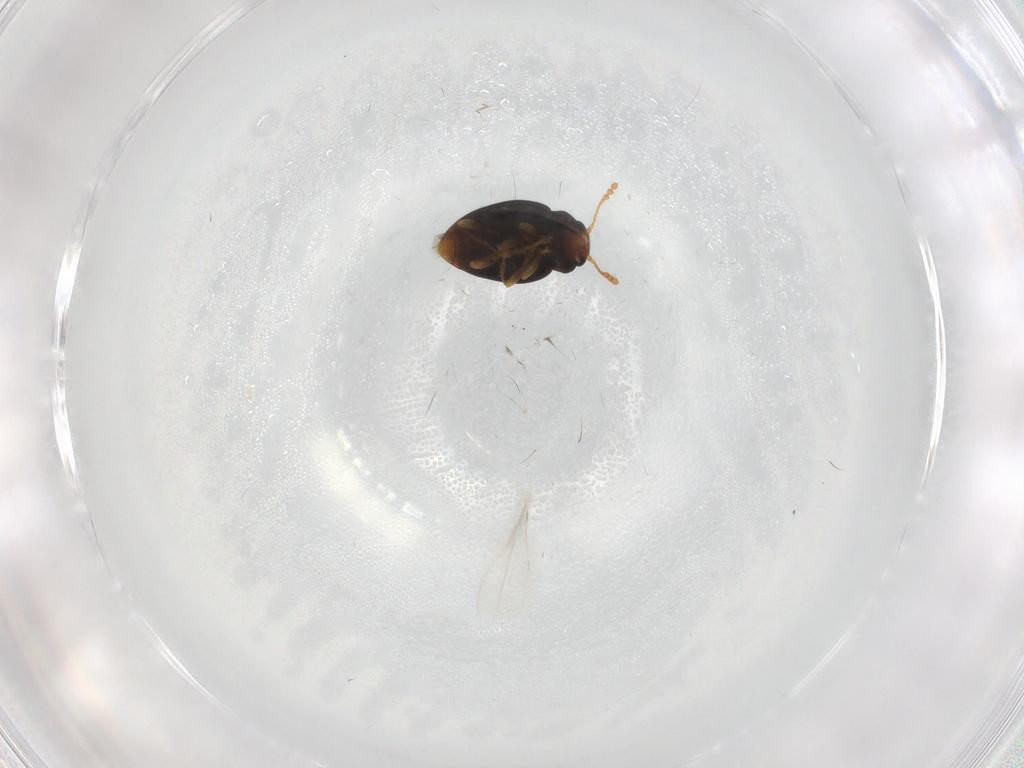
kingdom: Animalia
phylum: Arthropoda
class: Insecta
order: Coleoptera
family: Erotylidae
